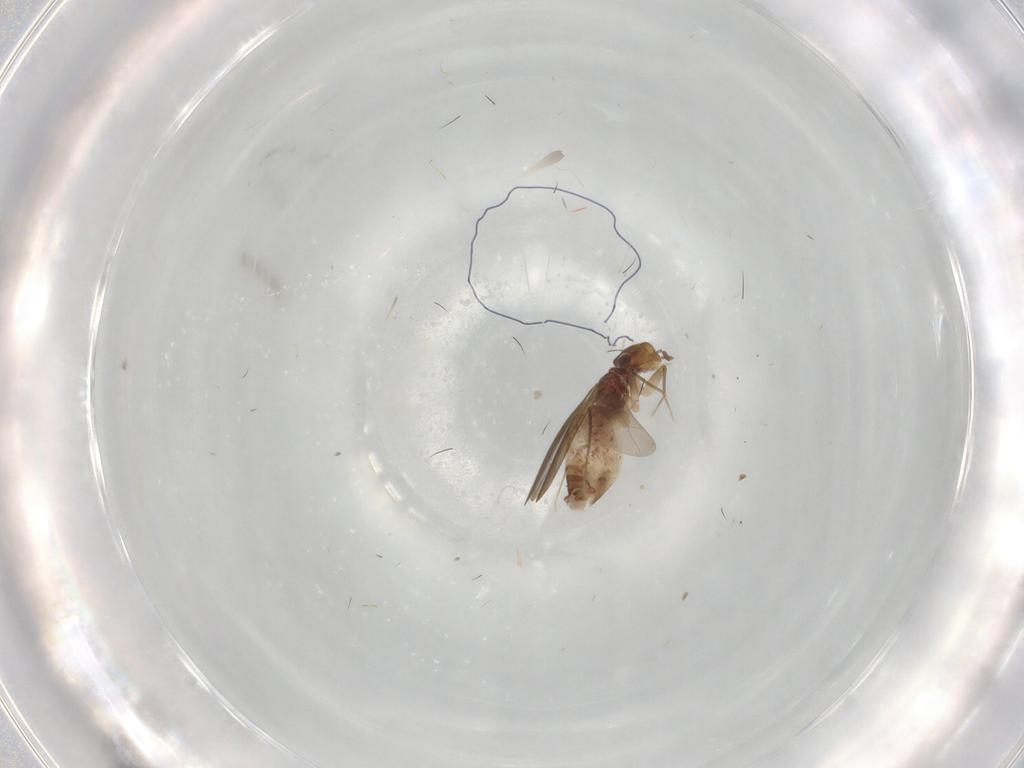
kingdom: Animalia
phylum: Arthropoda
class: Insecta
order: Psocodea
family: Lepidopsocidae
